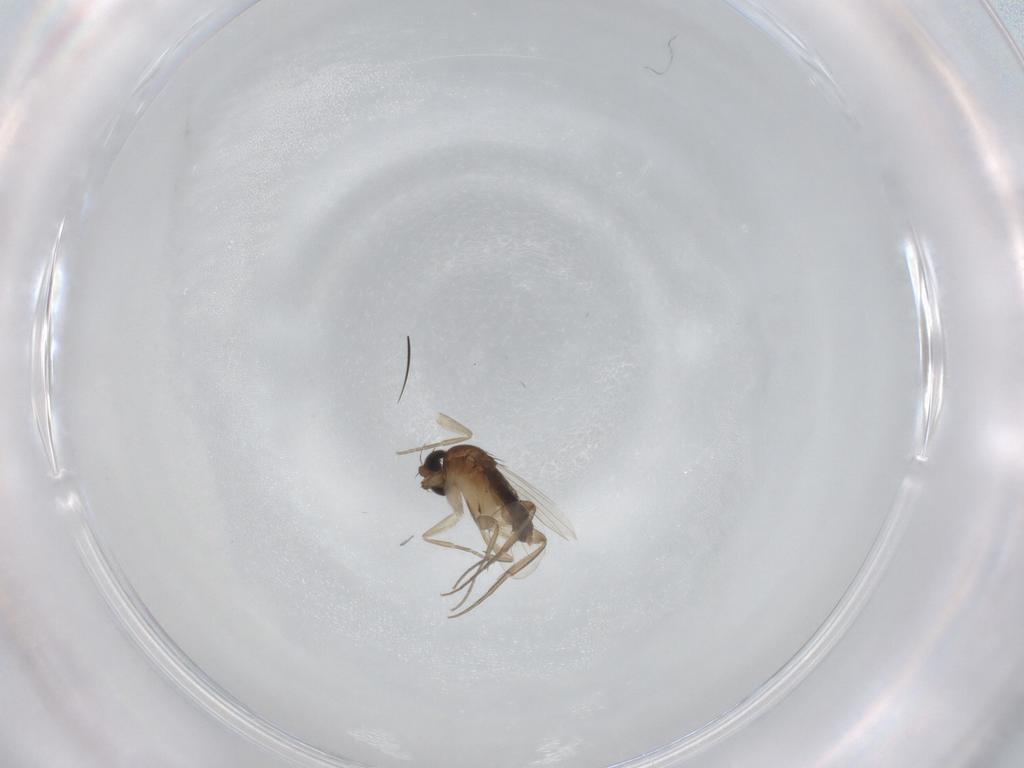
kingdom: Animalia
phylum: Arthropoda
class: Insecta
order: Diptera
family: Phoridae
